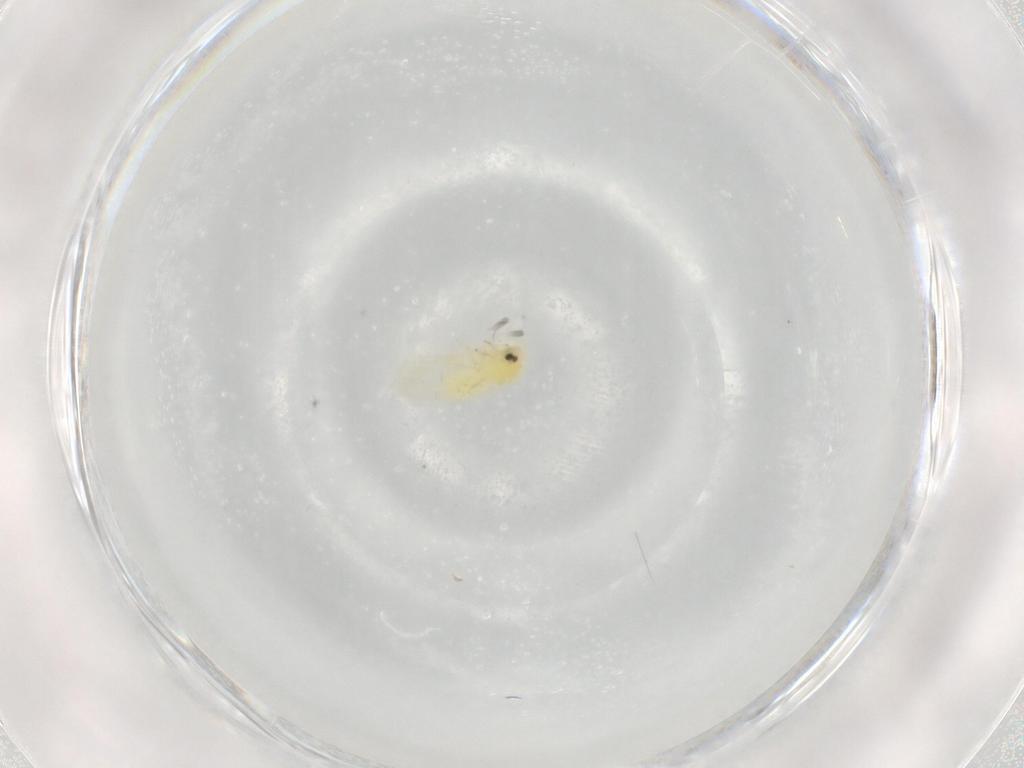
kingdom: Animalia
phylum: Arthropoda
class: Insecta
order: Hemiptera
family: Aleyrodidae
